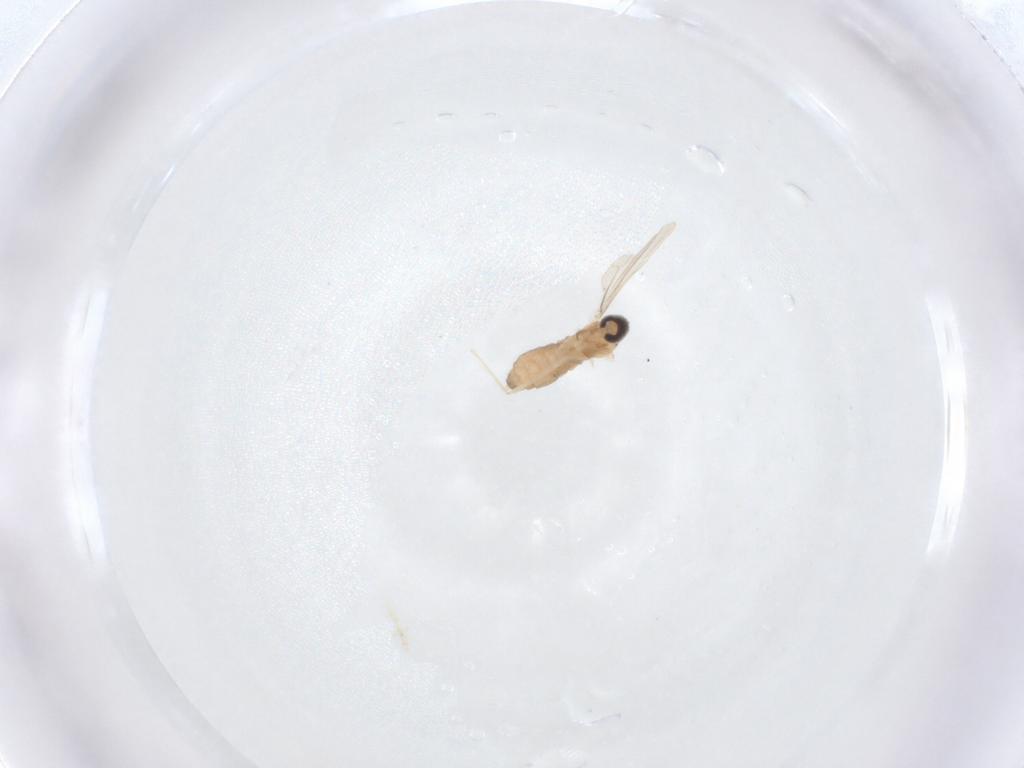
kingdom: Animalia
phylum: Arthropoda
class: Insecta
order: Diptera
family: Cecidomyiidae
